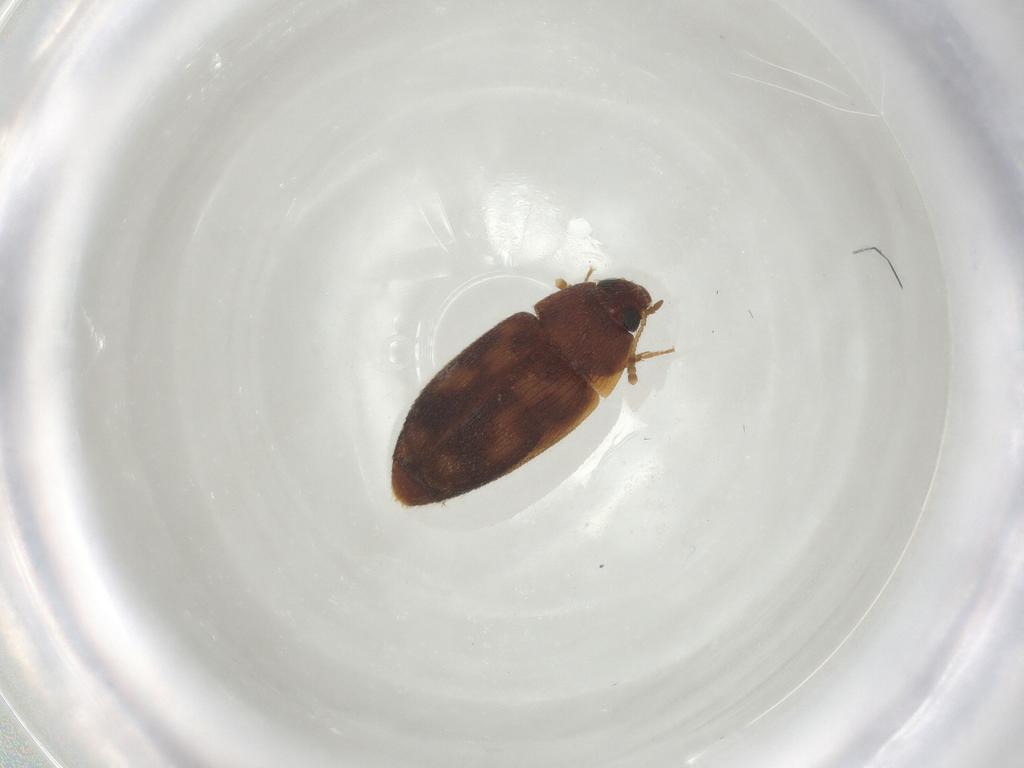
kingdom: Animalia
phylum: Arthropoda
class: Insecta
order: Coleoptera
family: Mycetophagidae
